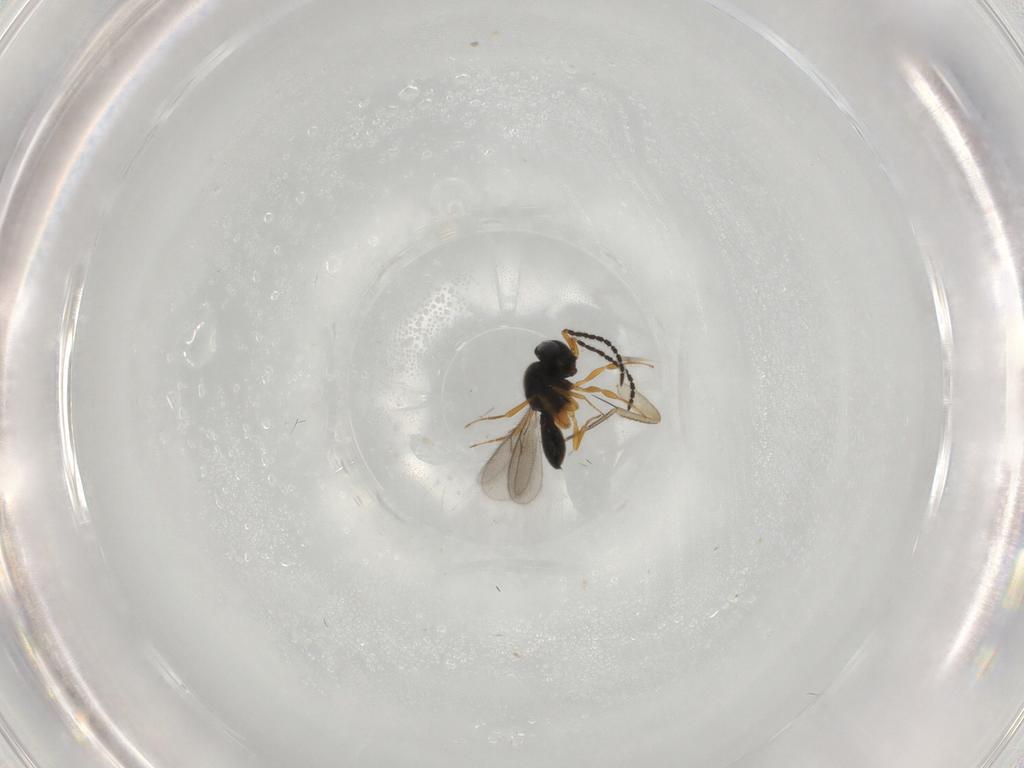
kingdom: Animalia
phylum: Arthropoda
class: Insecta
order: Hymenoptera
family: Scelionidae
